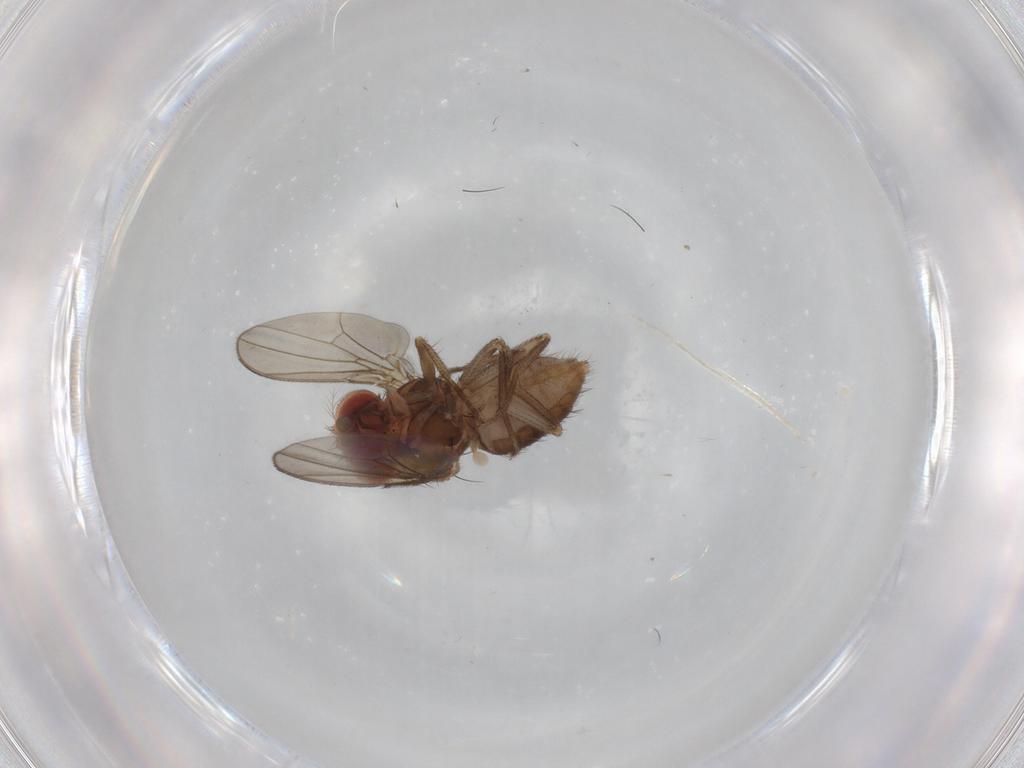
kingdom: Animalia
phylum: Arthropoda
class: Insecta
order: Diptera
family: Drosophilidae
